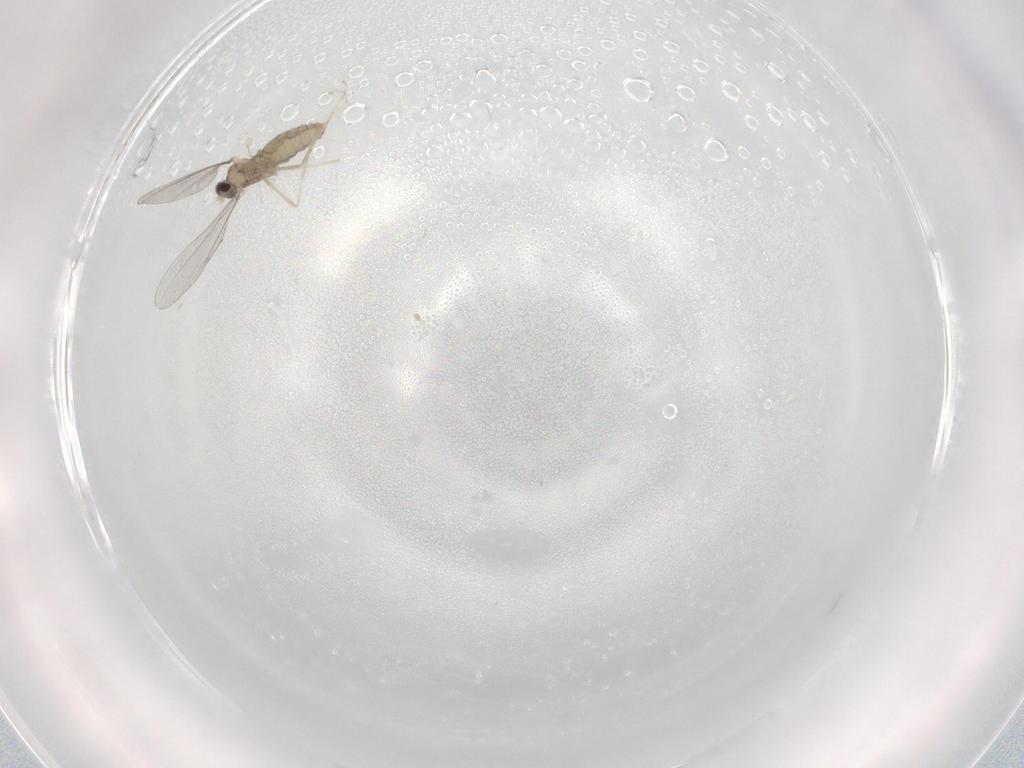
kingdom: Animalia
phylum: Arthropoda
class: Insecta
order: Diptera
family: Cecidomyiidae
